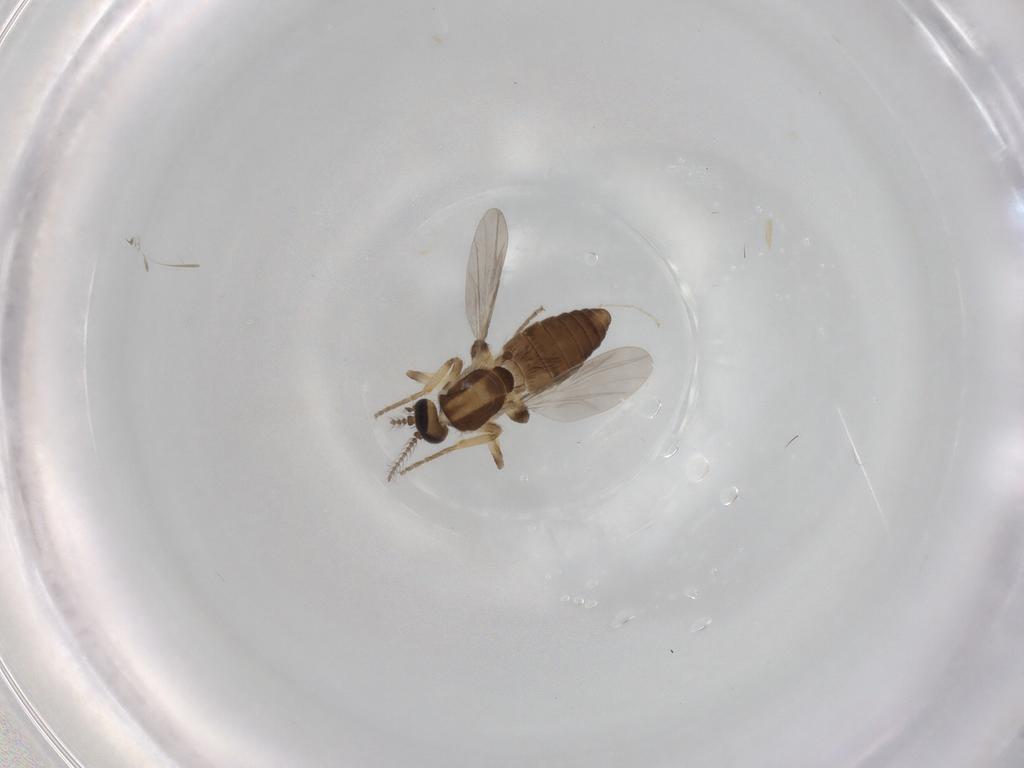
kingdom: Animalia
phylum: Arthropoda
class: Insecta
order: Diptera
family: Ceratopogonidae
